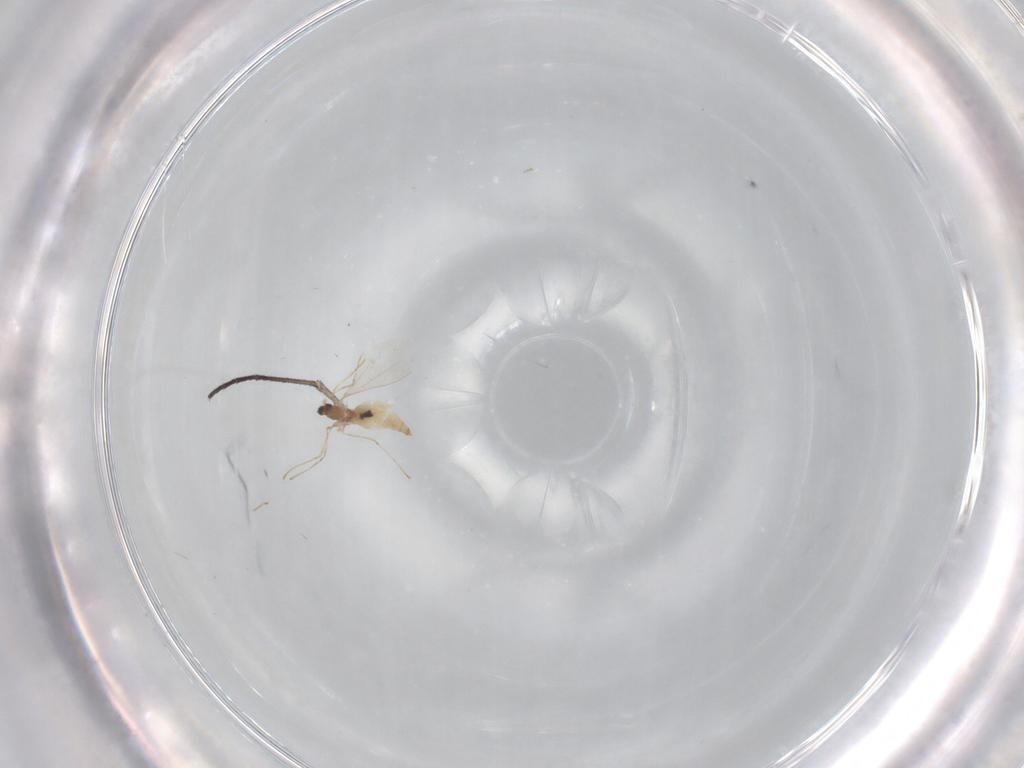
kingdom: Animalia
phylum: Arthropoda
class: Insecta
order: Diptera
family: Sciaridae
